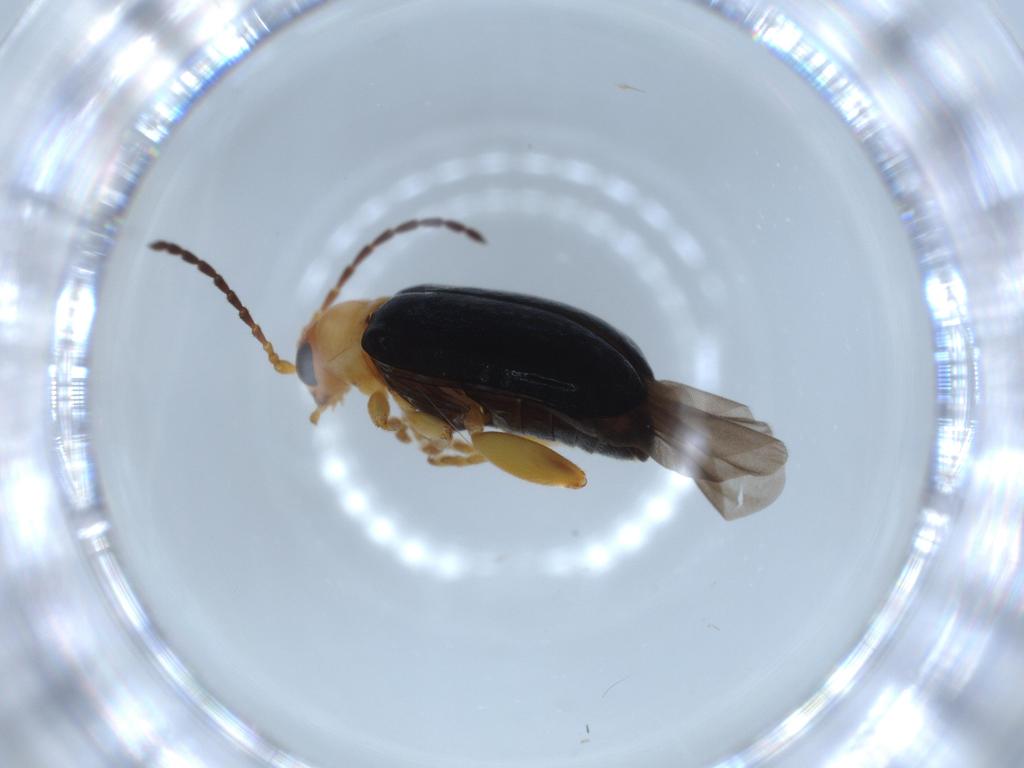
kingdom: Animalia
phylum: Arthropoda
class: Insecta
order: Coleoptera
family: Chrysomelidae
